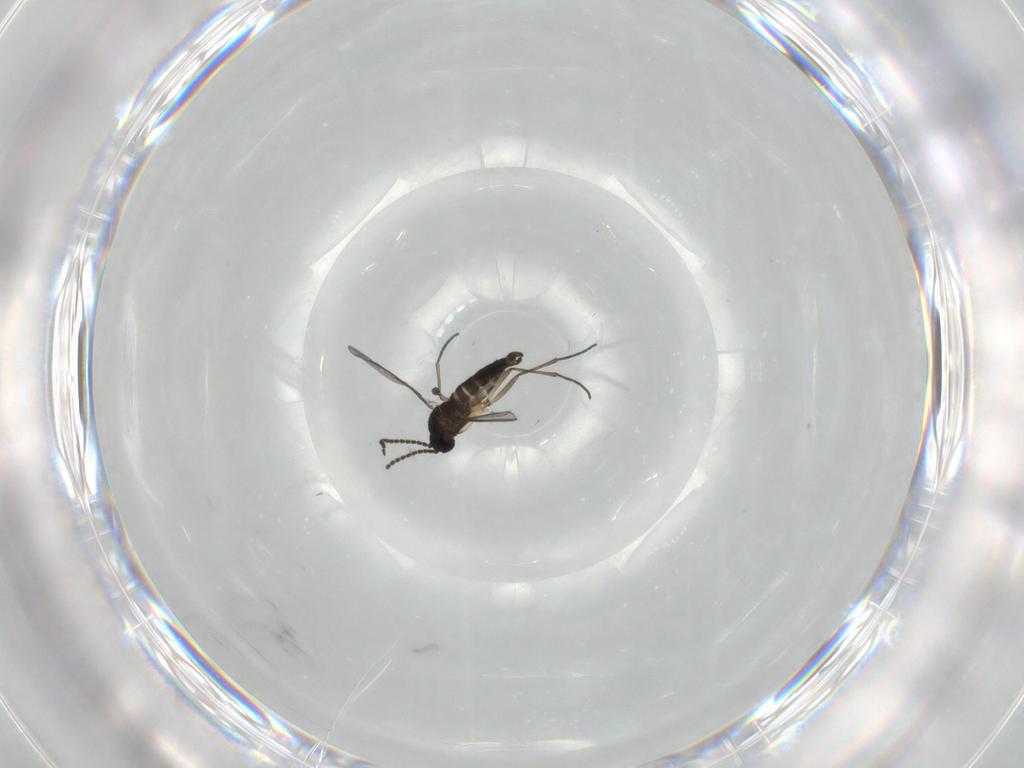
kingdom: Animalia
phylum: Arthropoda
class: Insecta
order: Diptera
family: Sciaridae
